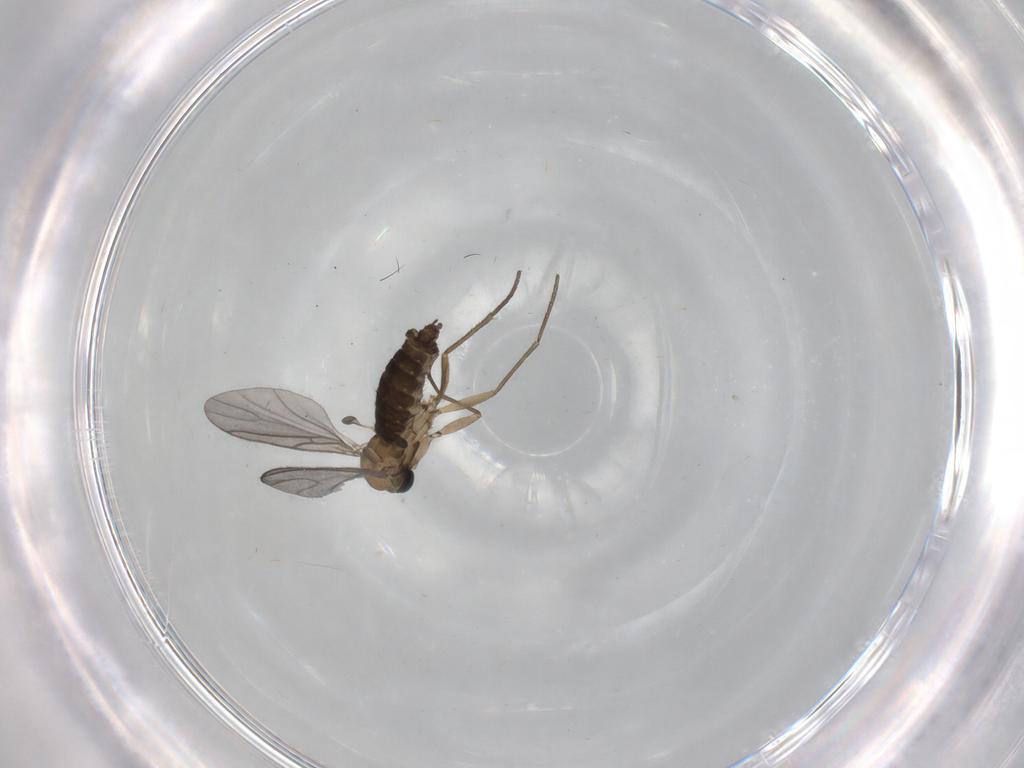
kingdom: Animalia
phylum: Arthropoda
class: Insecta
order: Diptera
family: Sciaridae
